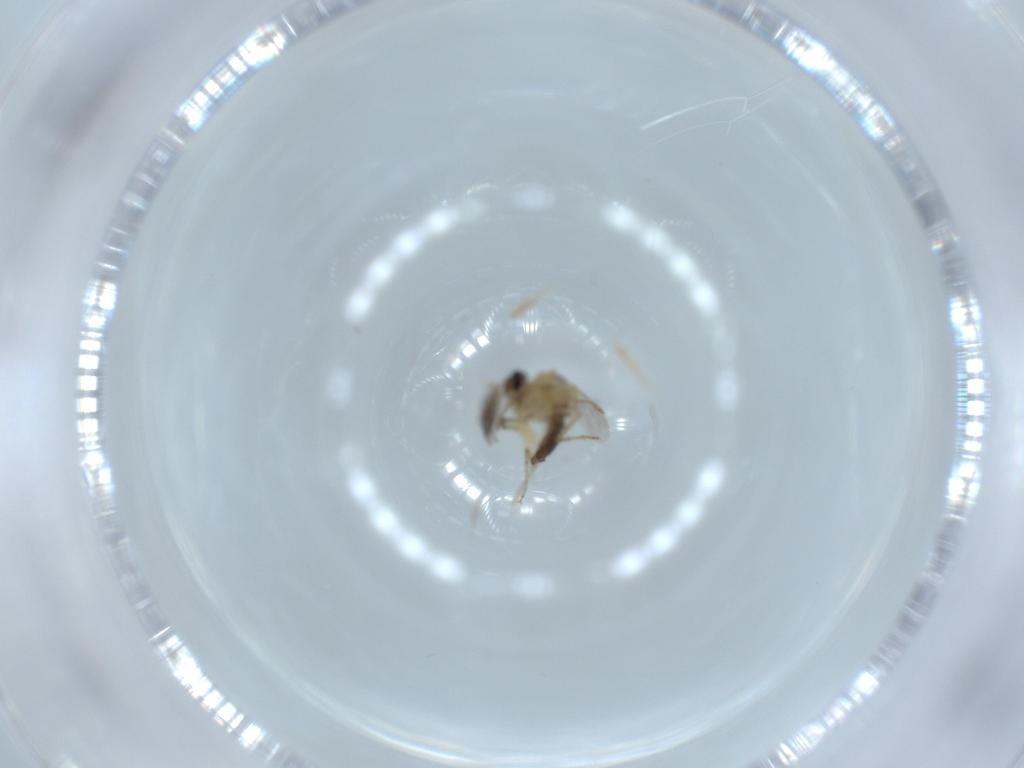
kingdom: Animalia
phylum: Arthropoda
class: Insecta
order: Diptera
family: Ceratopogonidae
